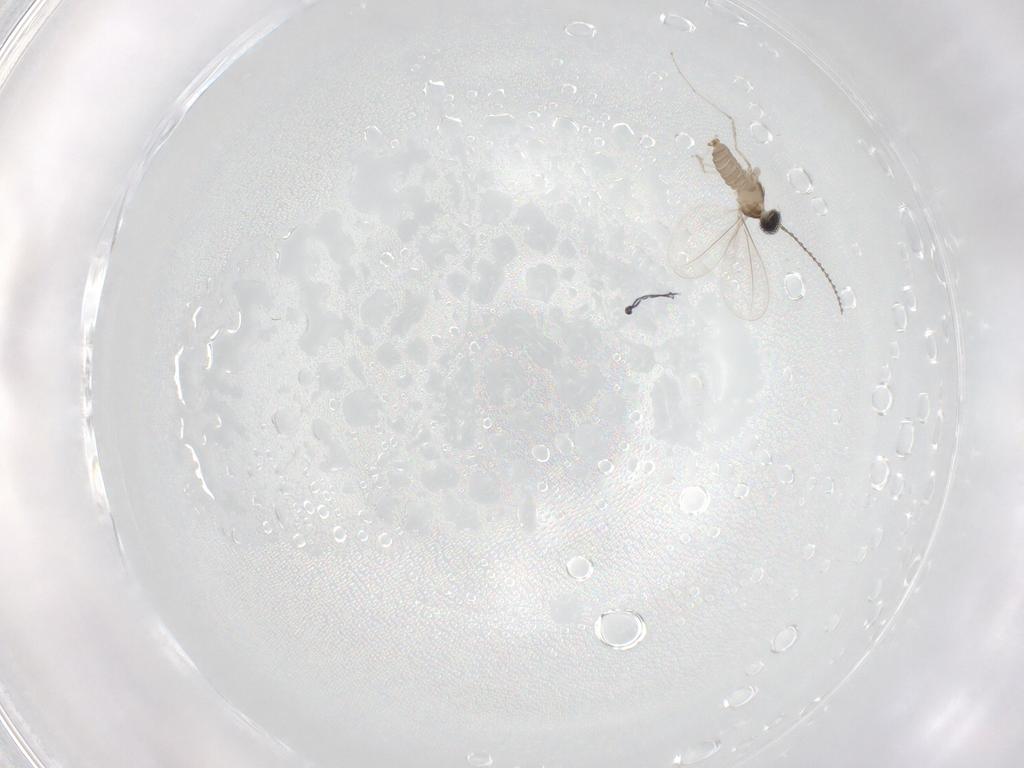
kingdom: Animalia
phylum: Arthropoda
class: Insecta
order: Diptera
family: Cecidomyiidae
